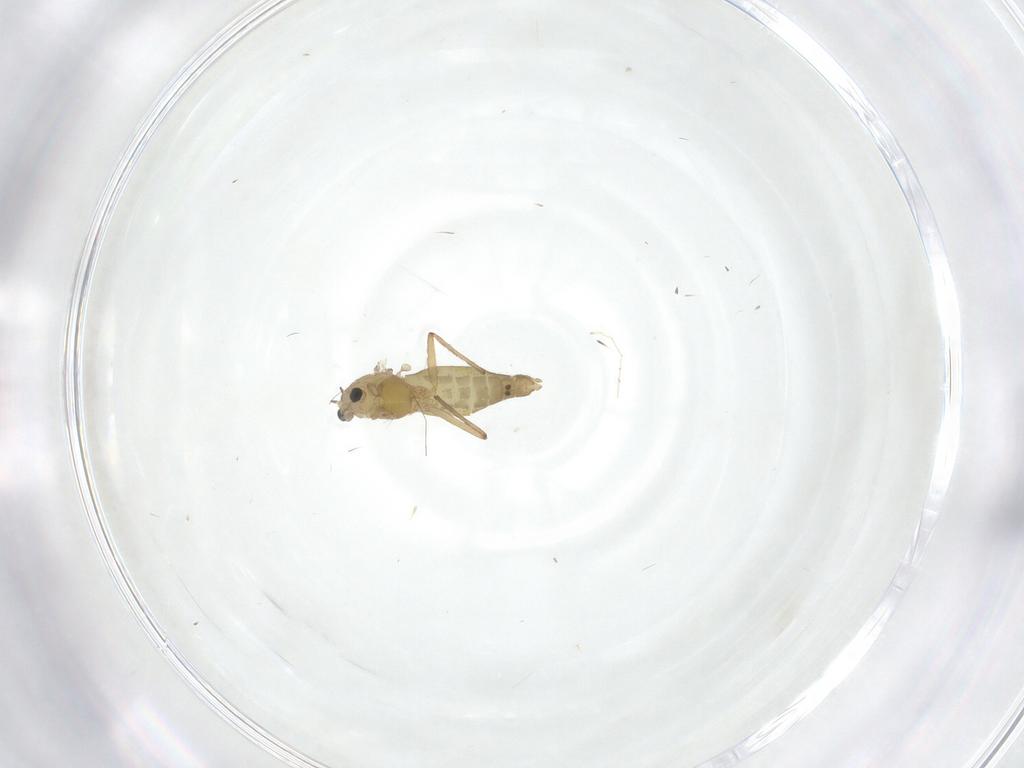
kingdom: Animalia
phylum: Arthropoda
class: Insecta
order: Diptera
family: Chironomidae
